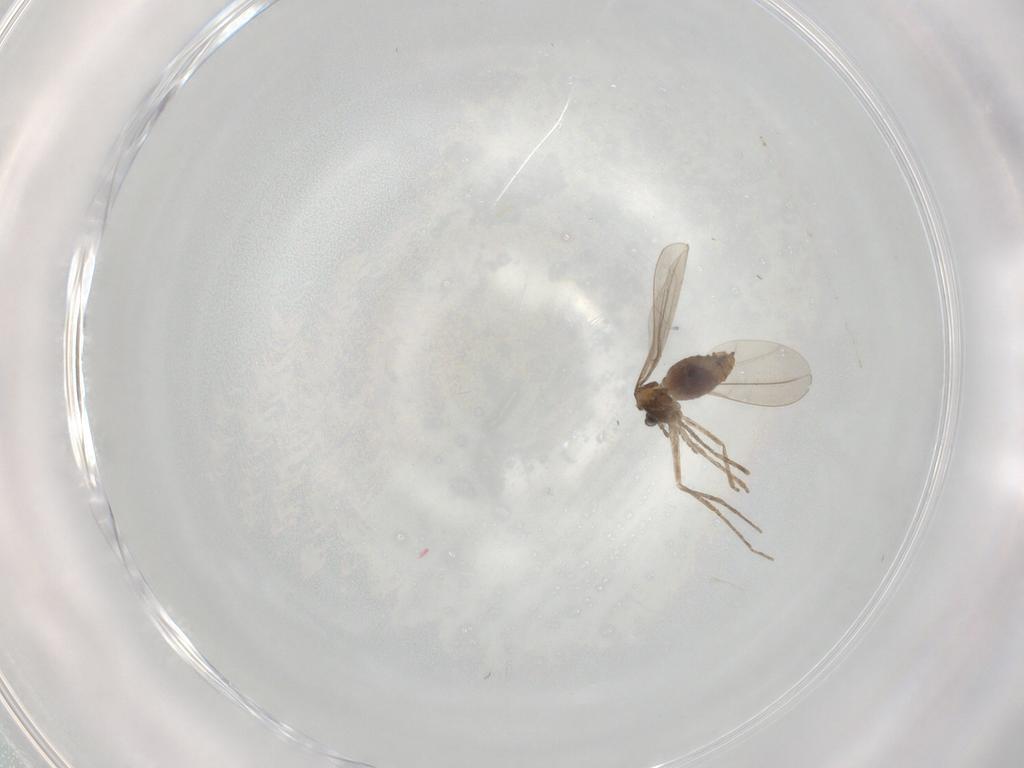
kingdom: Animalia
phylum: Arthropoda
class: Insecta
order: Diptera
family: Cecidomyiidae
